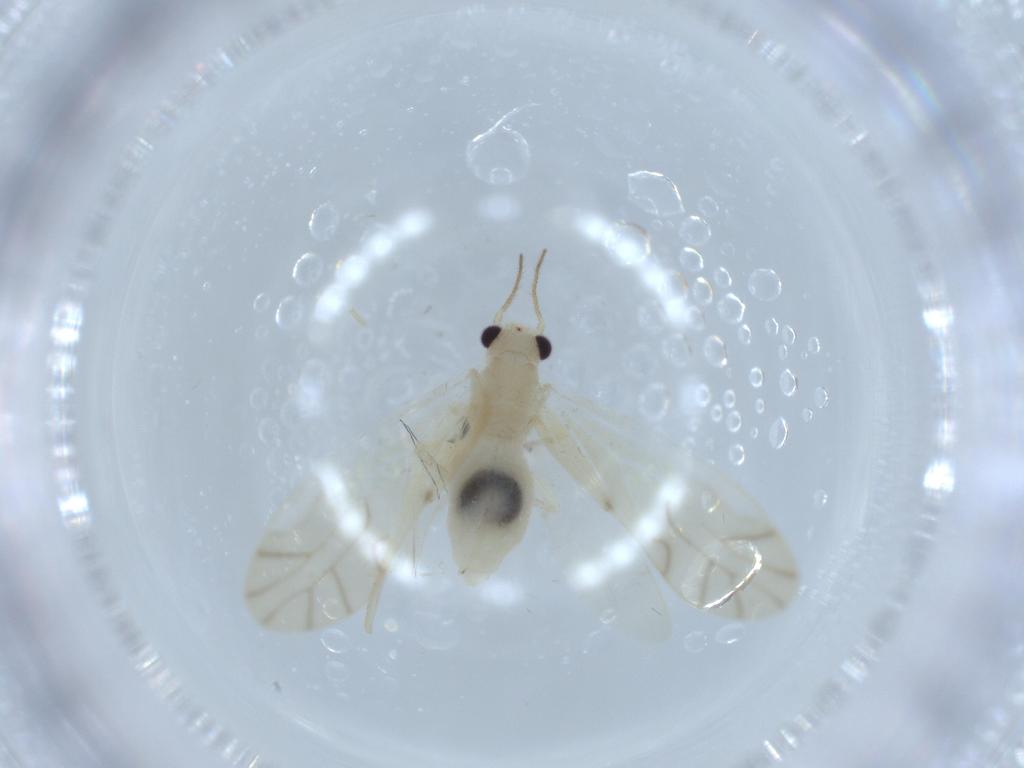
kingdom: Animalia
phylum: Arthropoda
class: Insecta
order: Psocodea
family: Caeciliusidae
